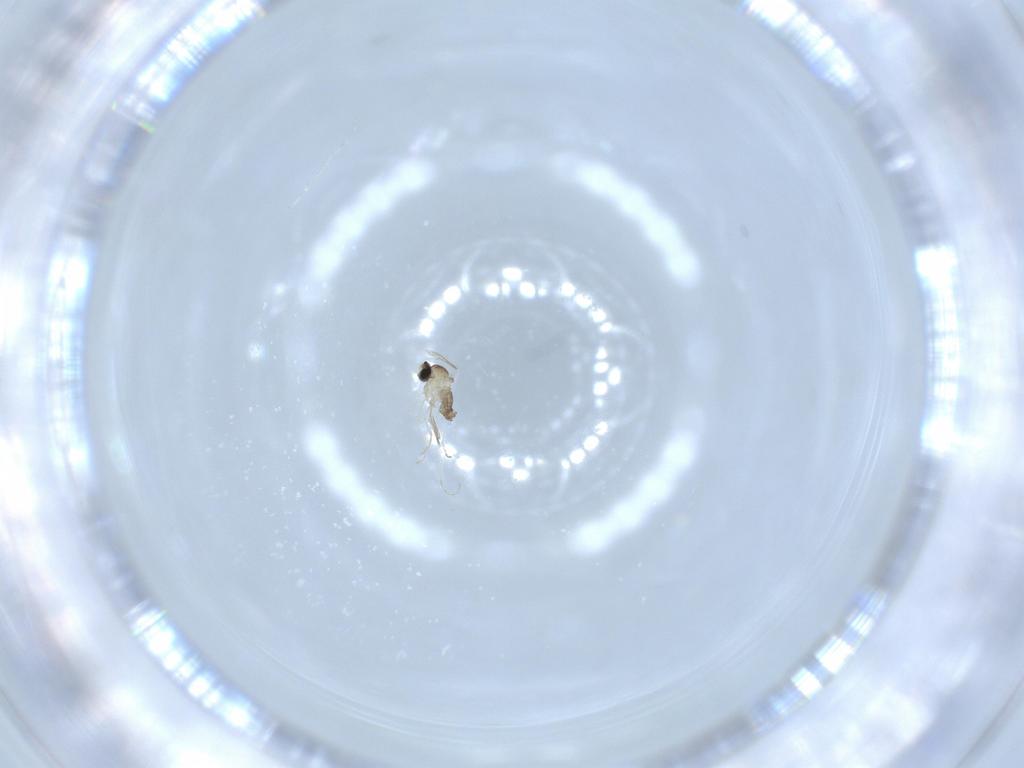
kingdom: Animalia
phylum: Arthropoda
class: Insecta
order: Diptera
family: Cecidomyiidae
